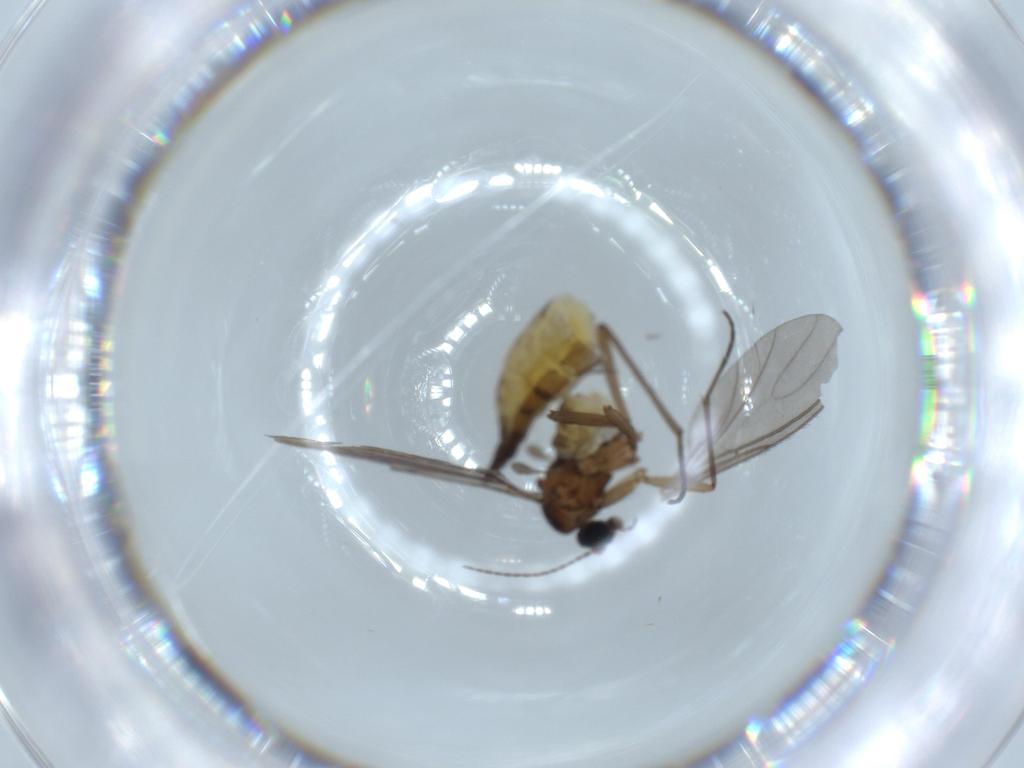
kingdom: Animalia
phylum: Arthropoda
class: Insecta
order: Diptera
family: Sciaridae
